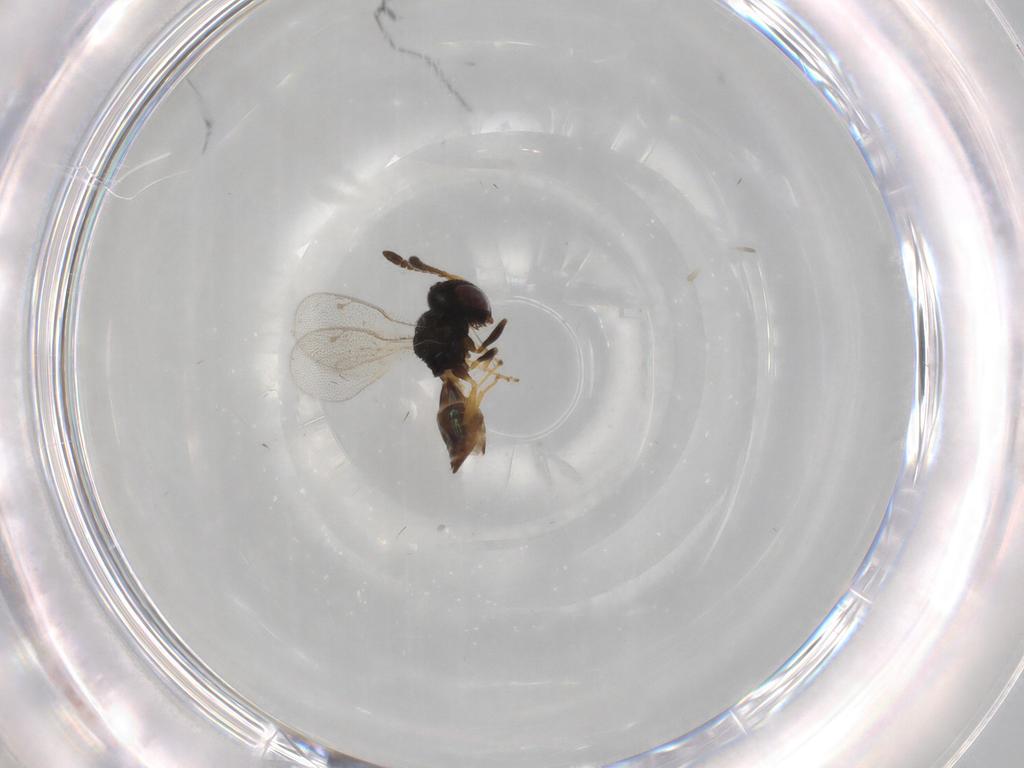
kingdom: Animalia
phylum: Arthropoda
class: Insecta
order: Hymenoptera
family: Pteromalidae
